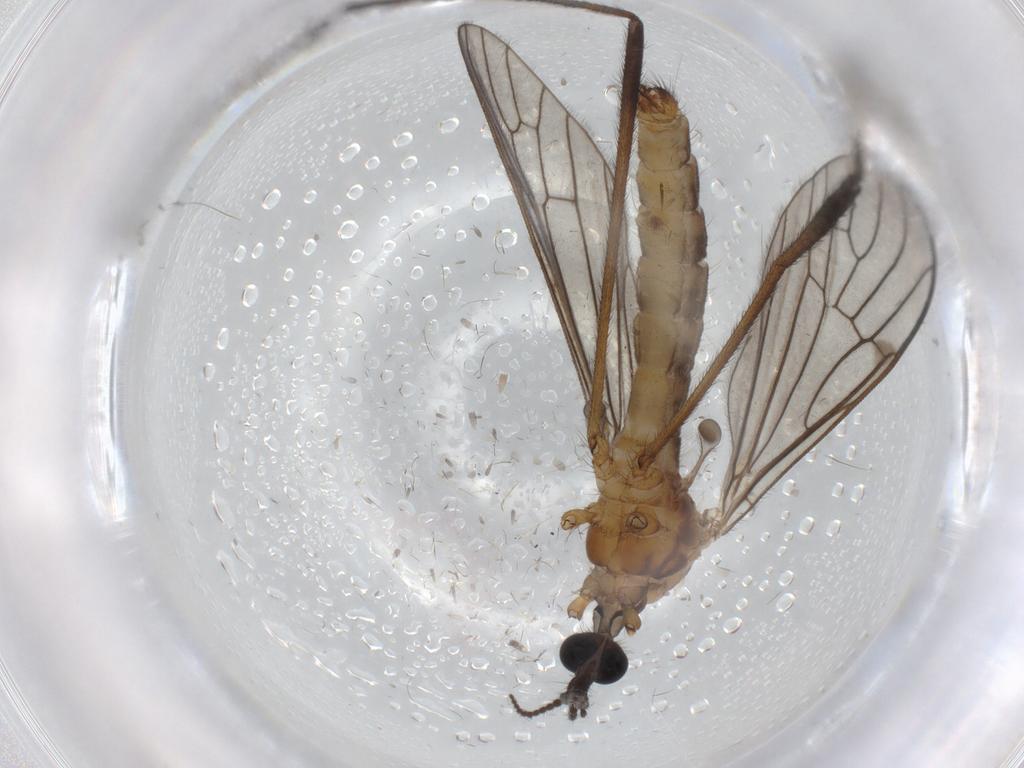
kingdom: Animalia
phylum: Arthropoda
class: Insecta
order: Diptera
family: Limoniidae
